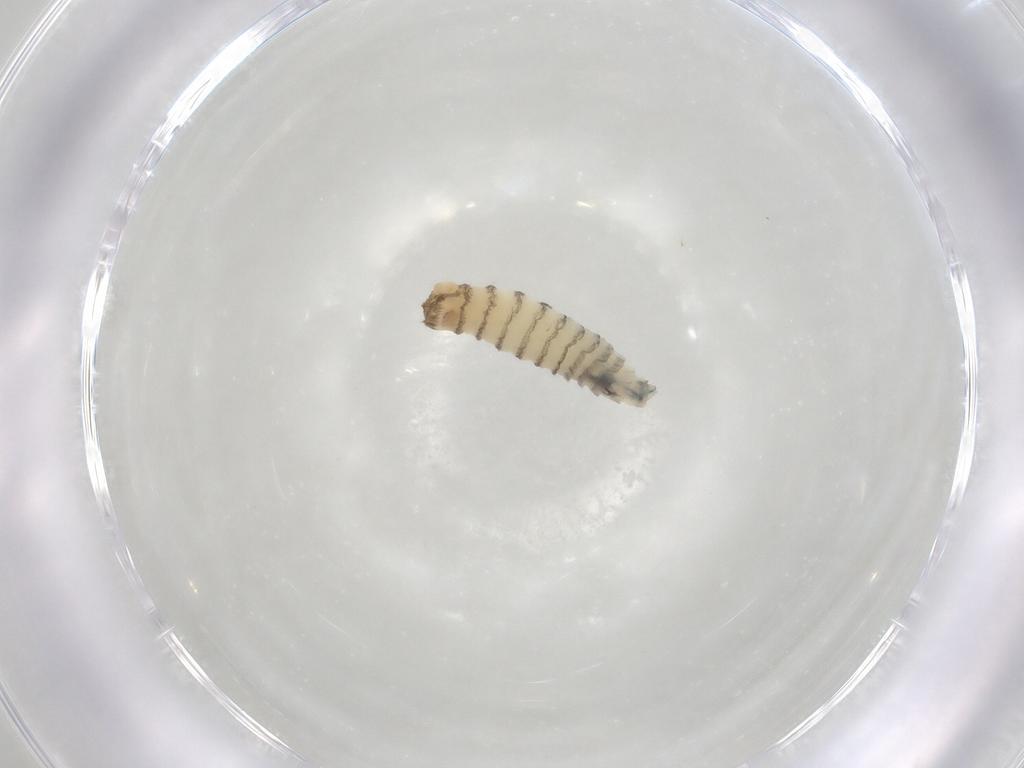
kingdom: Animalia
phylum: Arthropoda
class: Insecta
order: Diptera
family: Sarcophagidae
